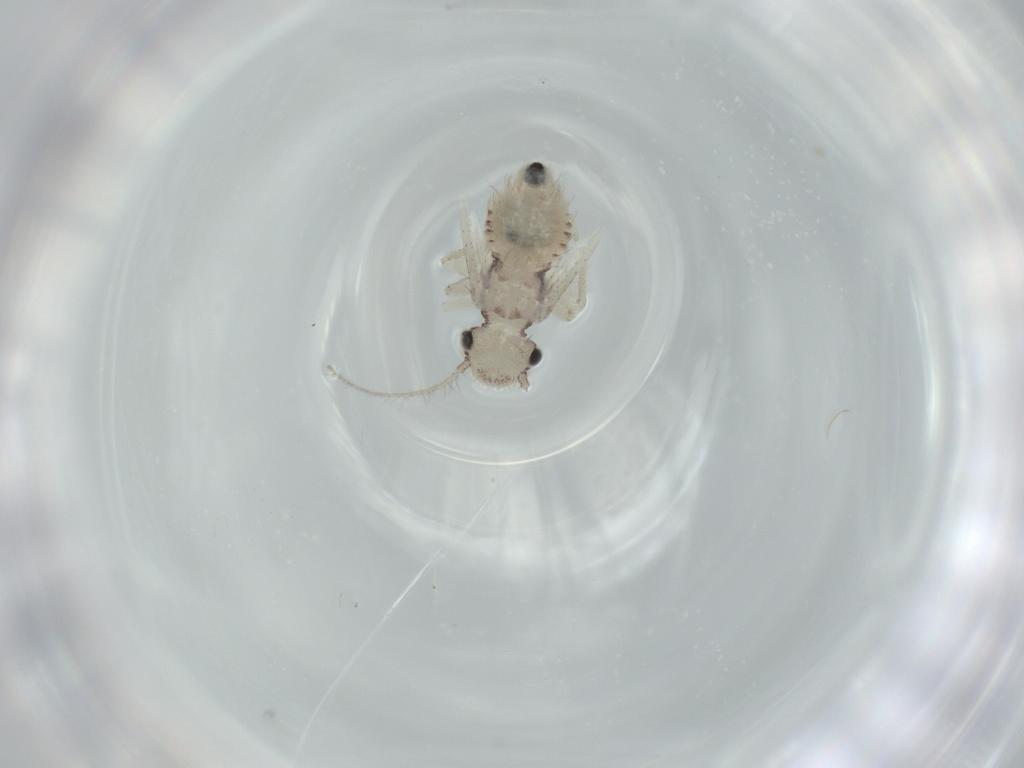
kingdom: Animalia
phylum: Arthropoda
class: Insecta
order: Psocodea
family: Pseudocaeciliidae
